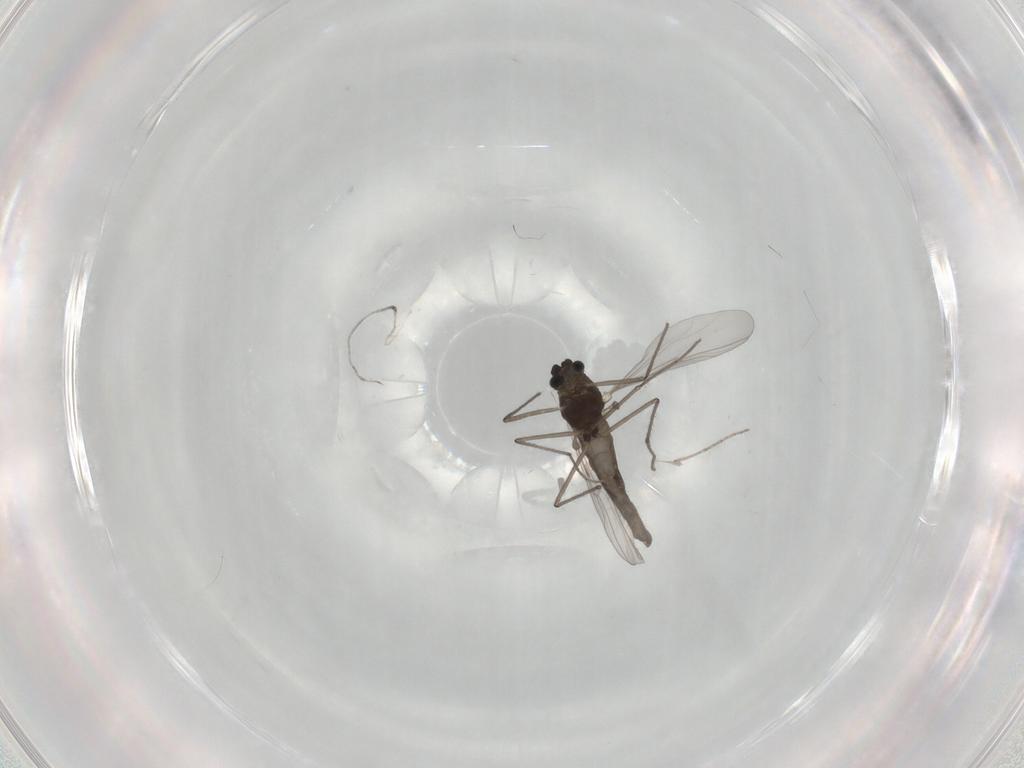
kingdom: Animalia
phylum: Arthropoda
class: Insecta
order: Diptera
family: Chironomidae
